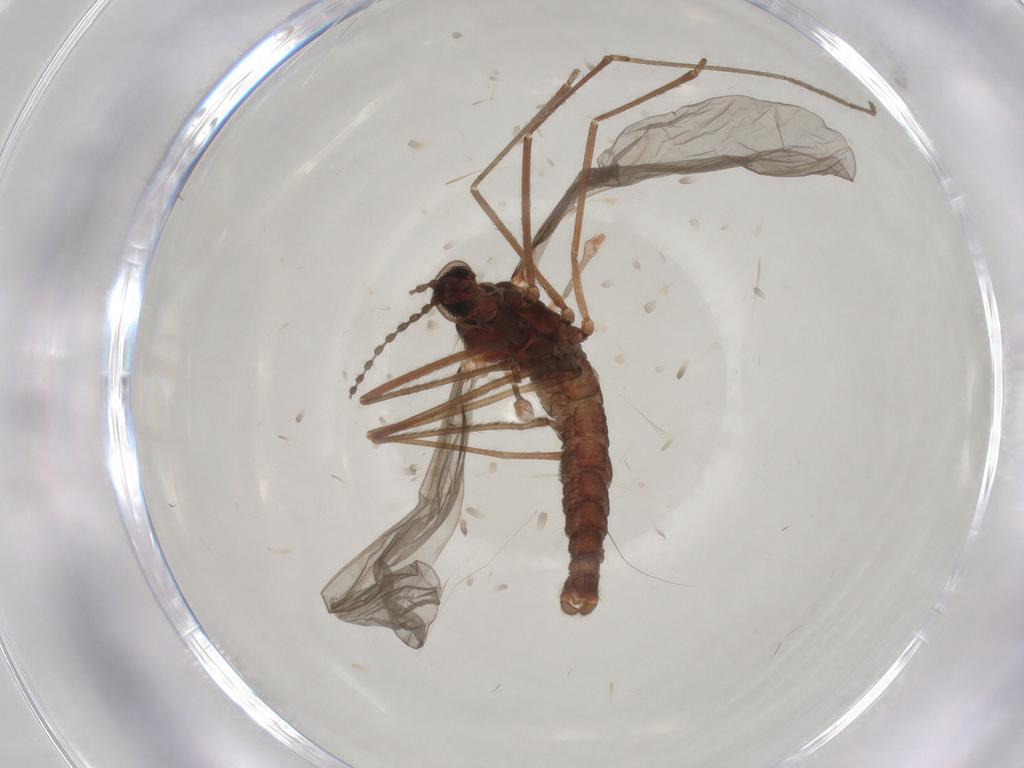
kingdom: Animalia
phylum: Arthropoda
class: Insecta
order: Diptera
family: Cecidomyiidae
